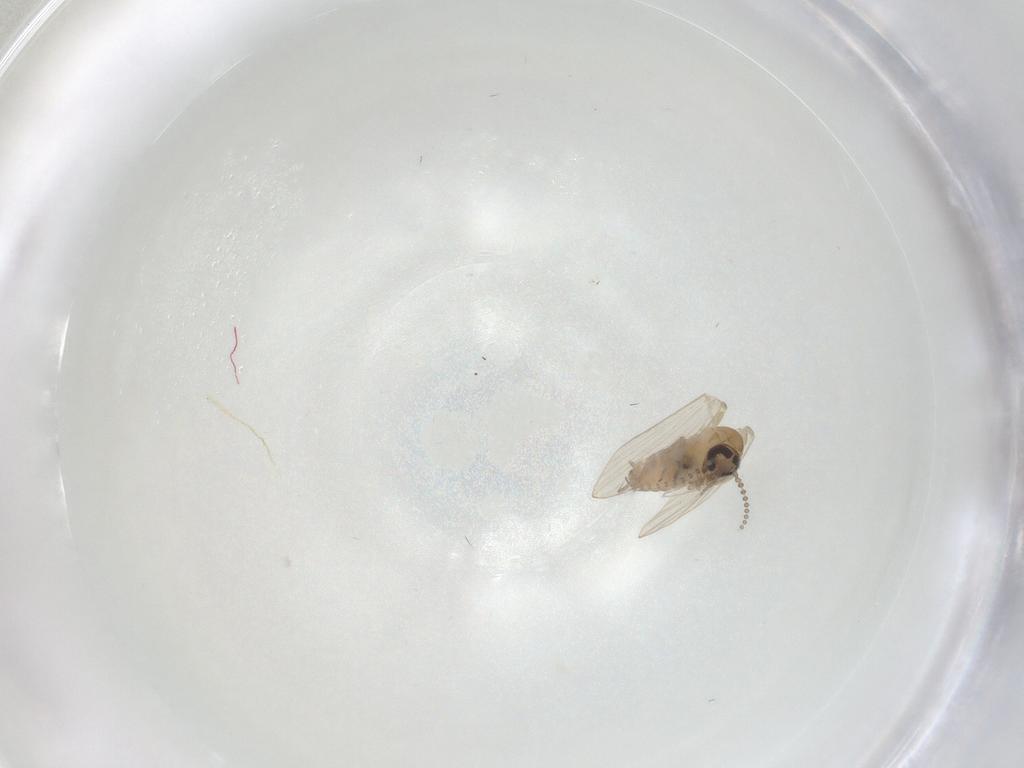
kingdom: Animalia
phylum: Arthropoda
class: Insecta
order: Diptera
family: Psychodidae
